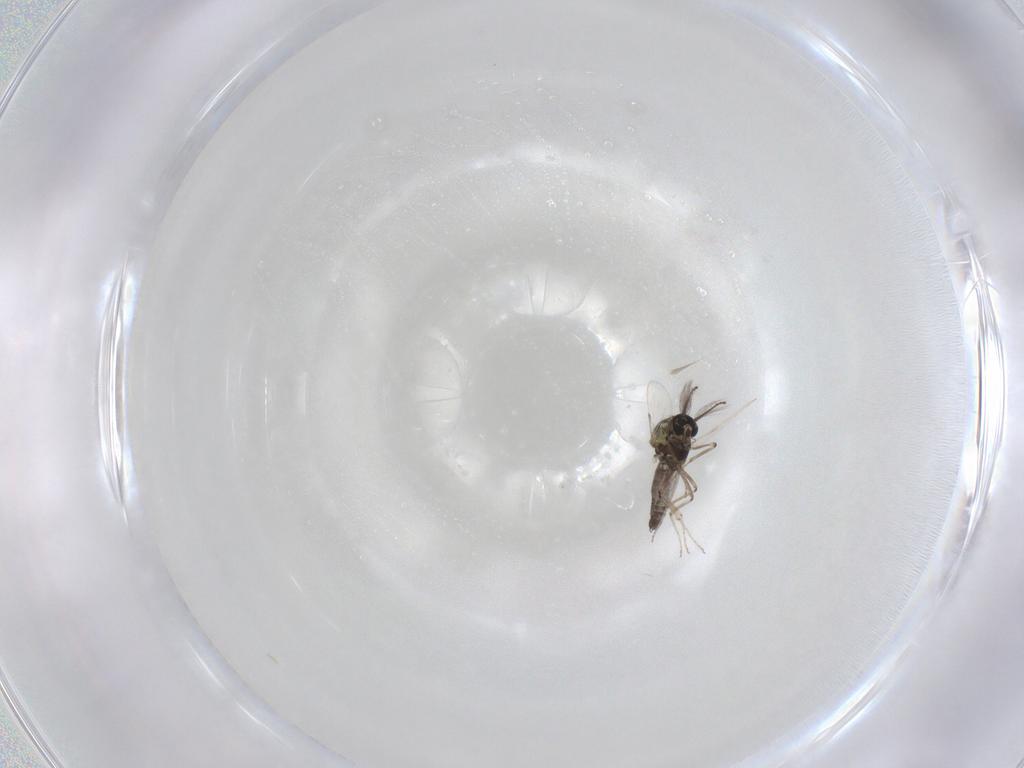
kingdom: Animalia
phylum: Arthropoda
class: Insecta
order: Diptera
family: Ceratopogonidae
